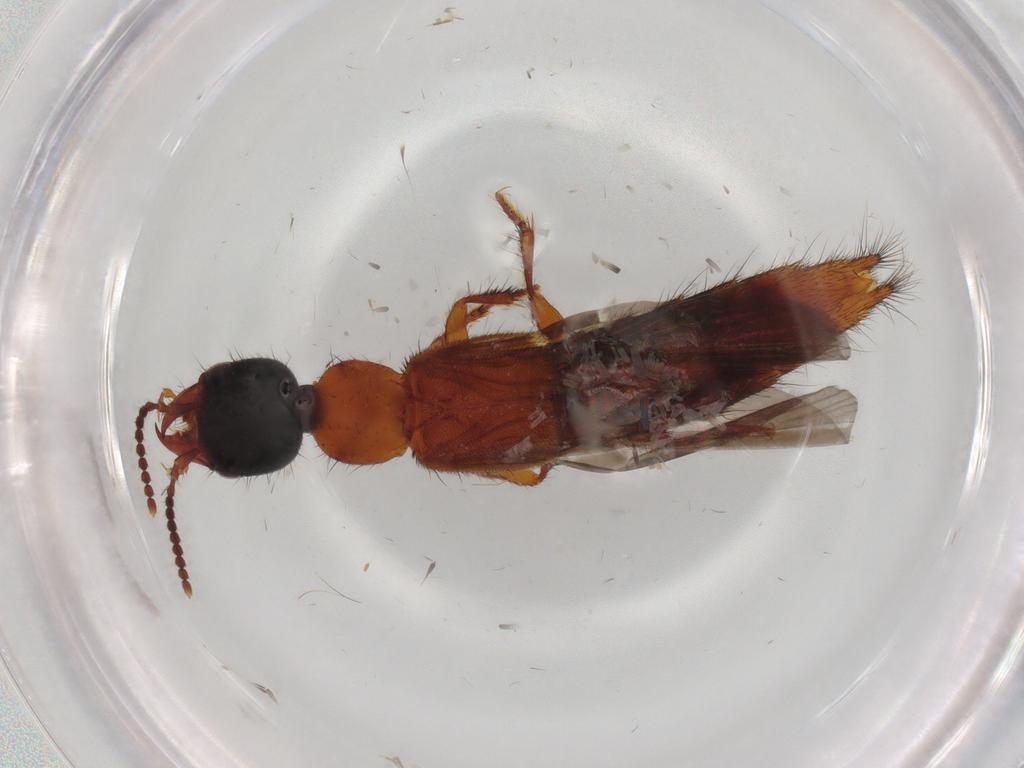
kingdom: Animalia
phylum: Arthropoda
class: Insecta
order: Coleoptera
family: Staphylinidae
